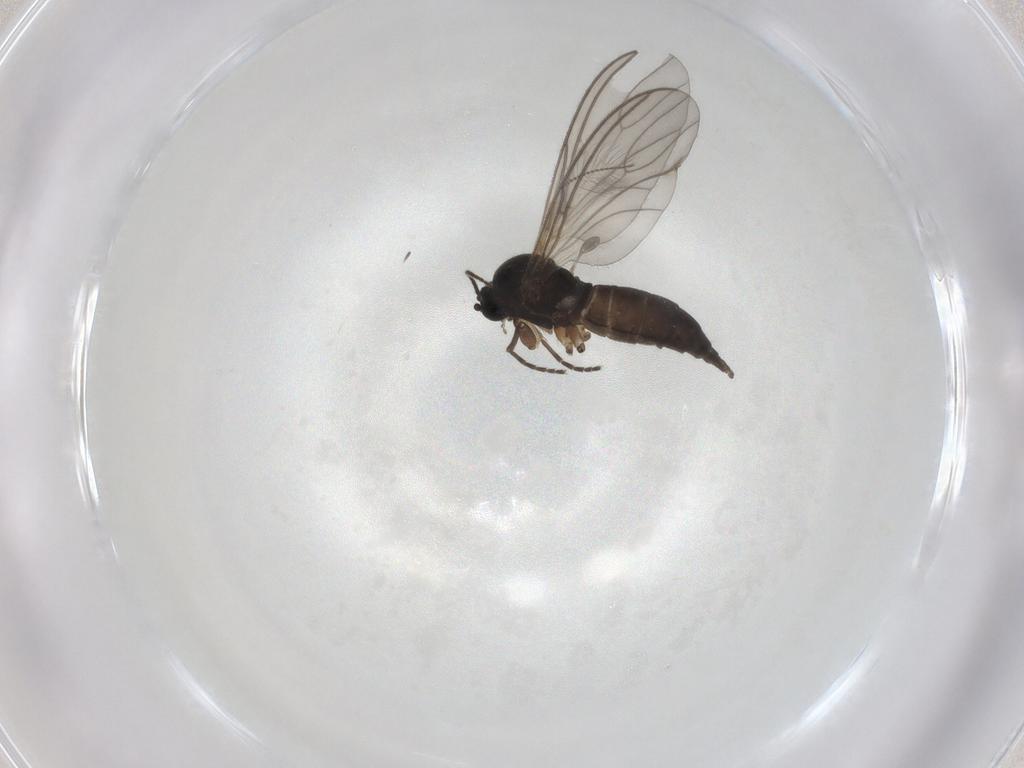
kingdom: Animalia
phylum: Arthropoda
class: Insecta
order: Diptera
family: Sciaridae
